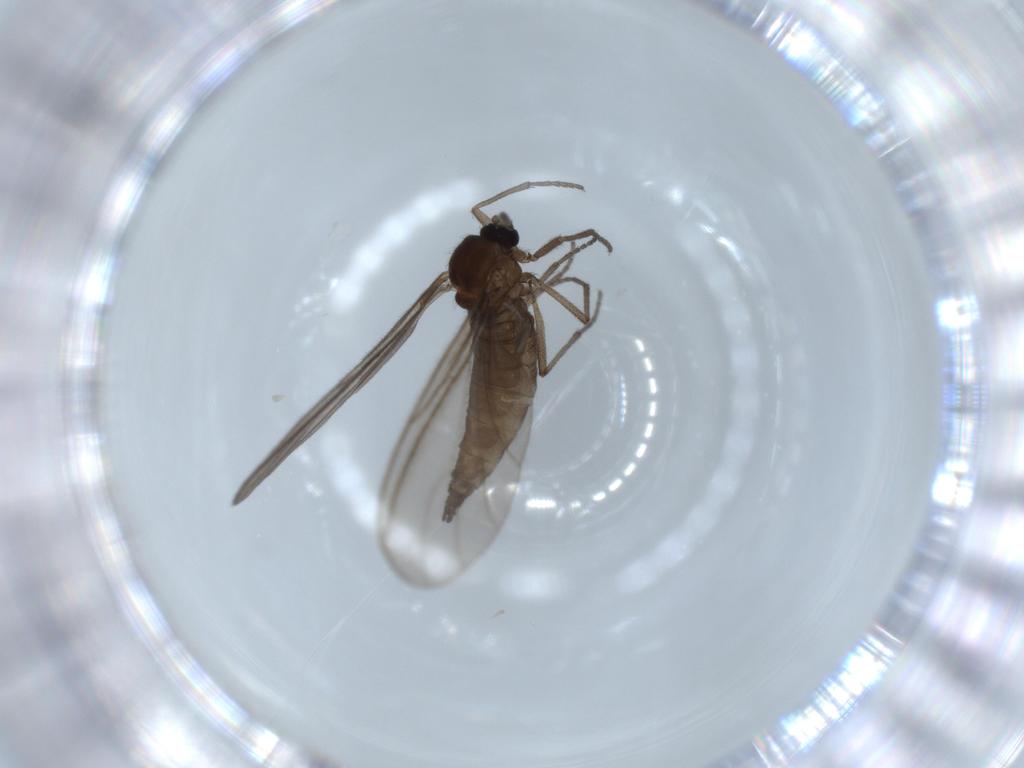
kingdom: Animalia
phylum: Arthropoda
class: Insecta
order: Diptera
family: Sciaridae
